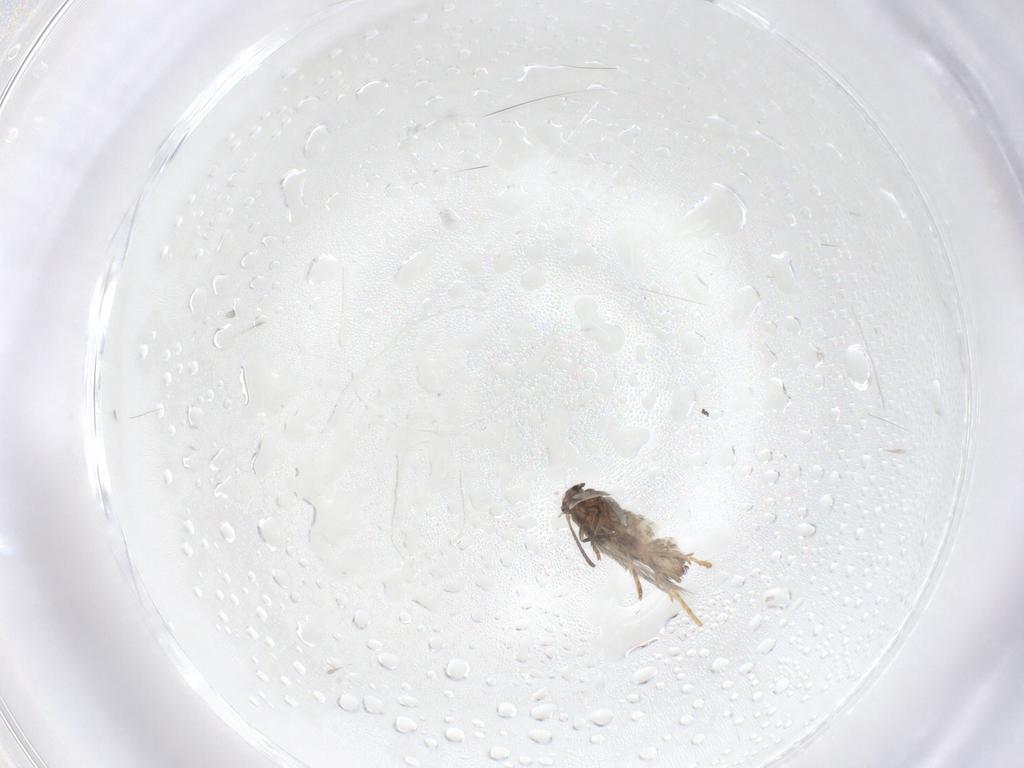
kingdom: Animalia
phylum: Arthropoda
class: Insecta
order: Lepidoptera
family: Nepticulidae
